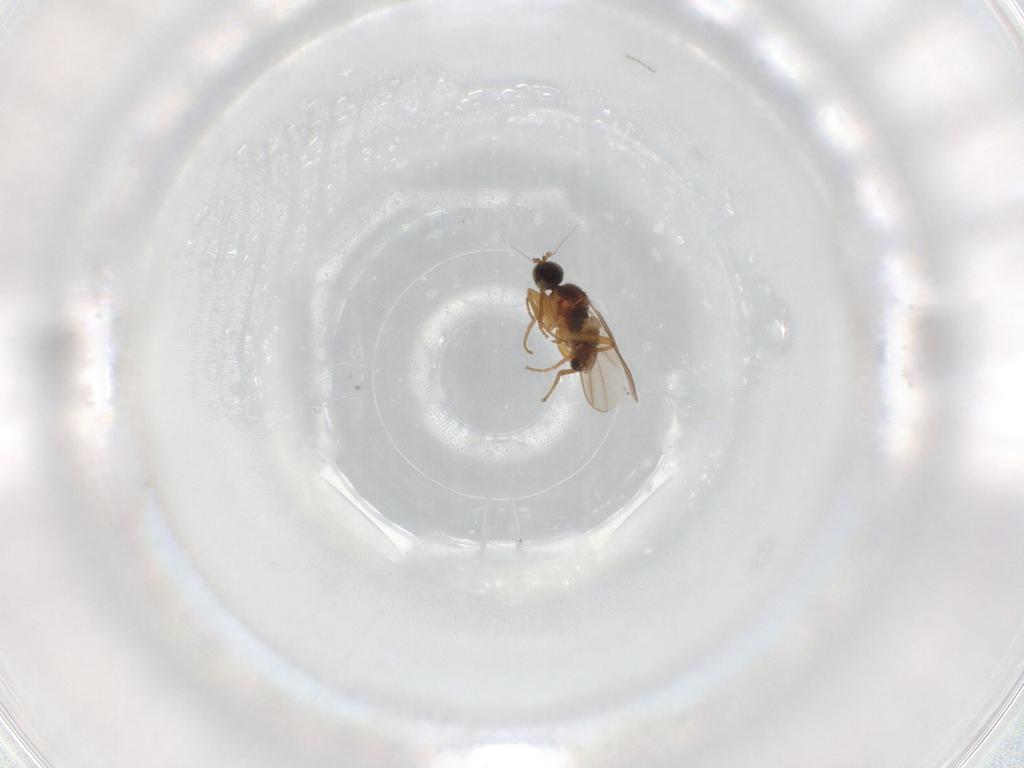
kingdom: Animalia
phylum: Arthropoda
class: Insecta
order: Diptera
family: Hybotidae
